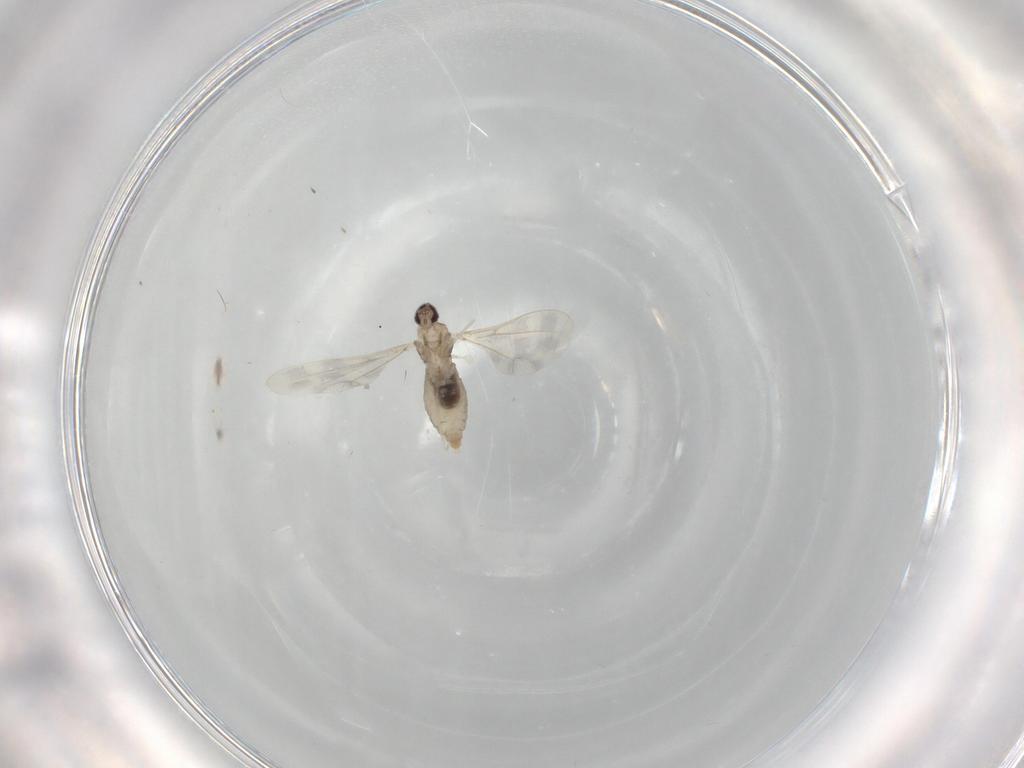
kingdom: Animalia
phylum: Arthropoda
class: Insecta
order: Diptera
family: Cecidomyiidae
